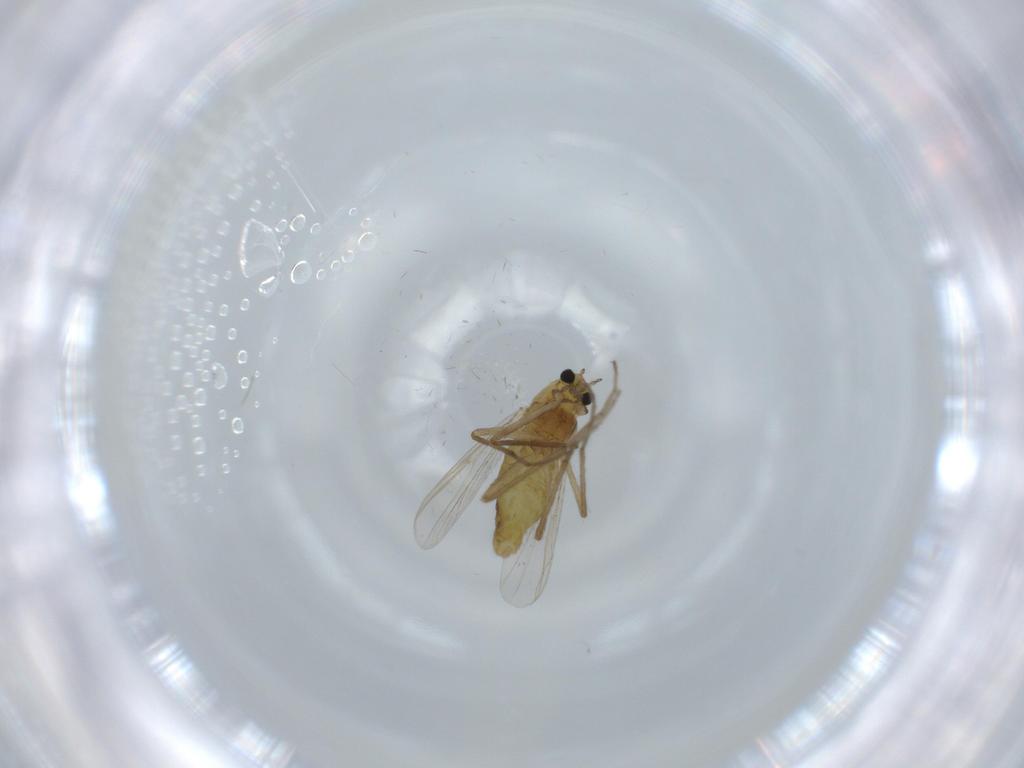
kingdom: Animalia
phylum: Arthropoda
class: Insecta
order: Diptera
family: Chironomidae
